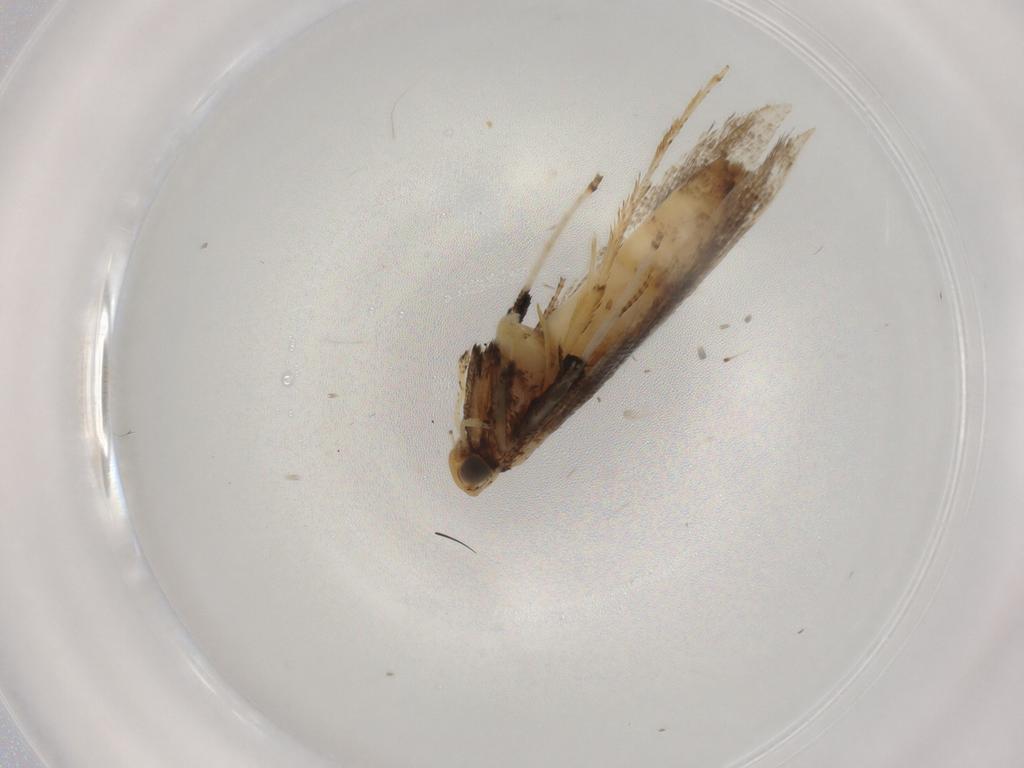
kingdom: Animalia
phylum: Arthropoda
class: Insecta
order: Lepidoptera
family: Gracillariidae
